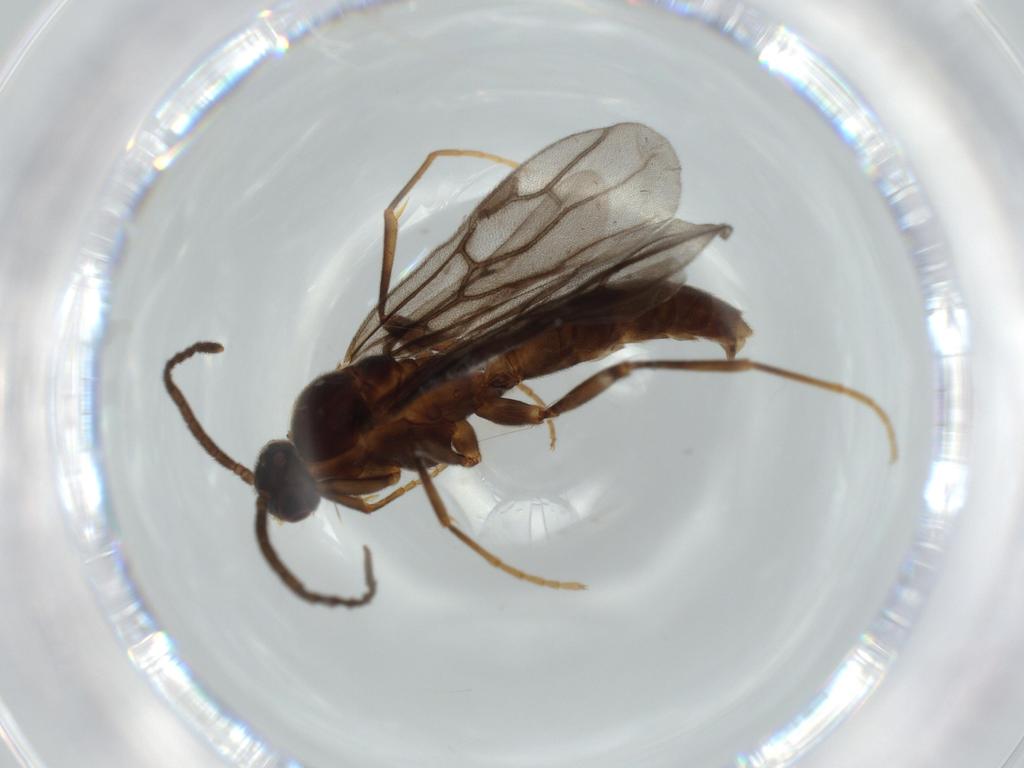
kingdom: Animalia
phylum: Arthropoda
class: Insecta
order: Hymenoptera
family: Formicidae
